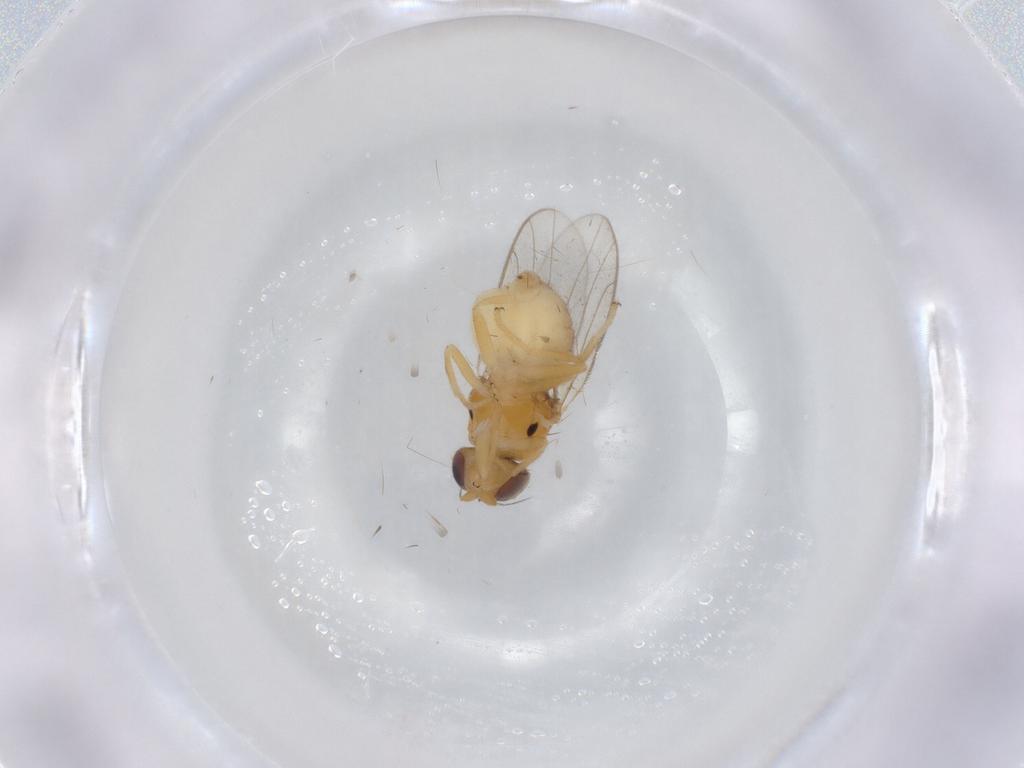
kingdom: Animalia
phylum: Arthropoda
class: Insecta
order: Diptera
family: Chloropidae
